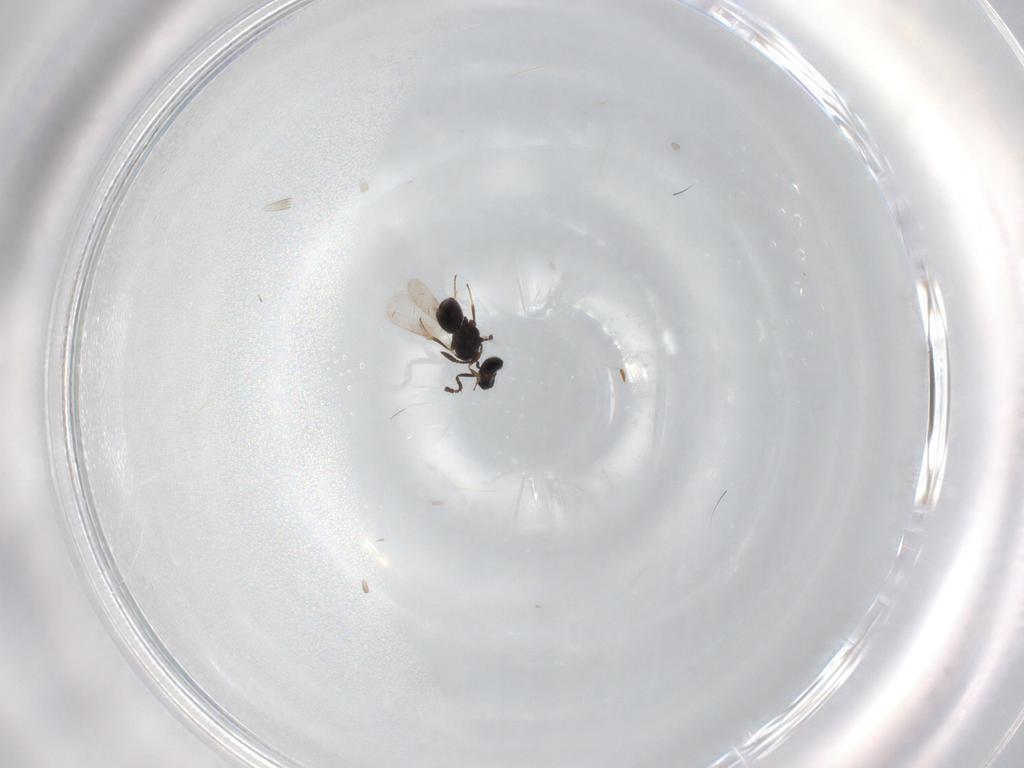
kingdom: Animalia
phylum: Arthropoda
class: Insecta
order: Hymenoptera
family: Scelionidae
